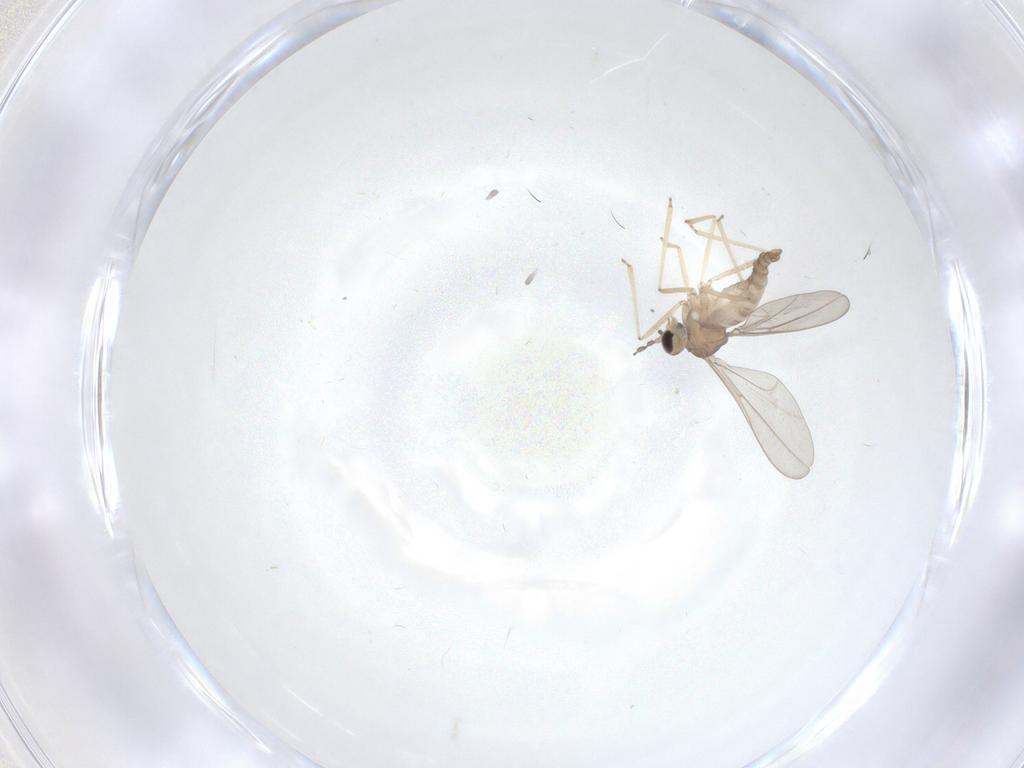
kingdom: Animalia
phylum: Arthropoda
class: Insecta
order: Diptera
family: Cecidomyiidae
